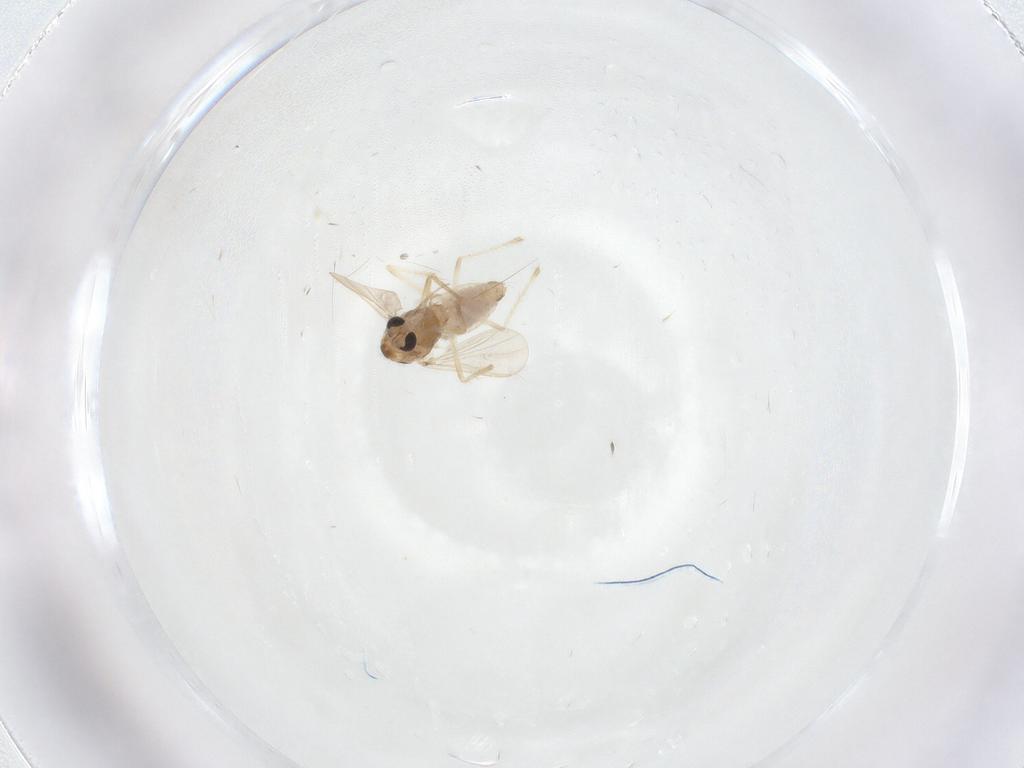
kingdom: Animalia
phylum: Arthropoda
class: Insecta
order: Diptera
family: Chironomidae
